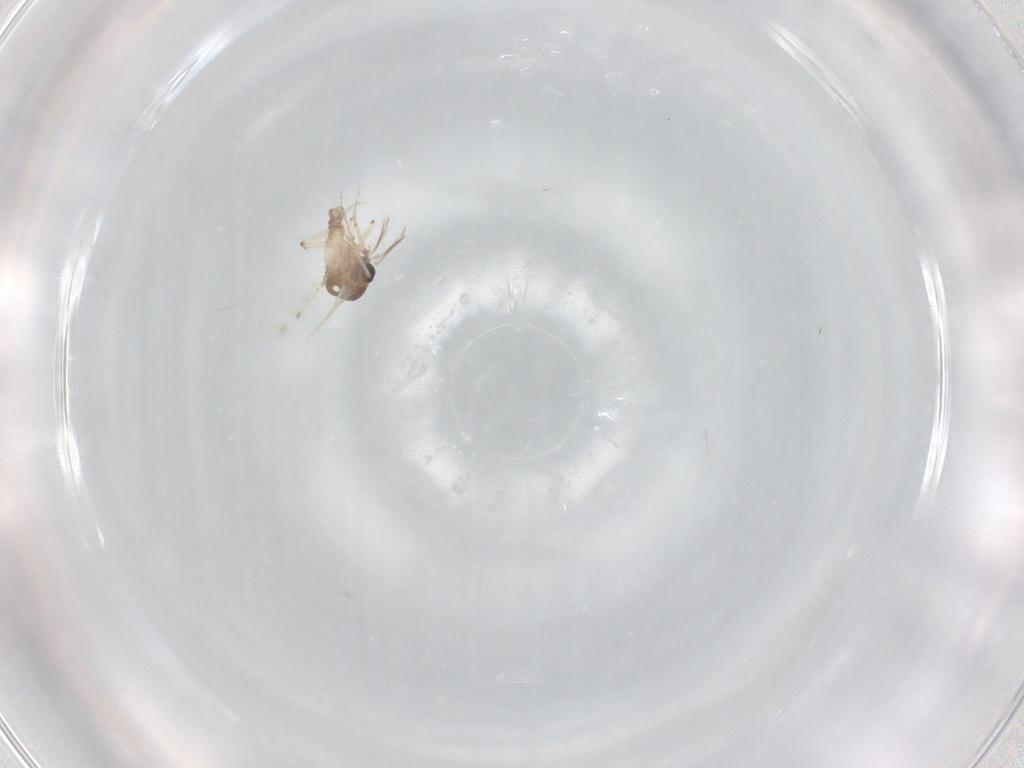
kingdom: Animalia
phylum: Arthropoda
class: Insecta
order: Diptera
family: Ceratopogonidae
